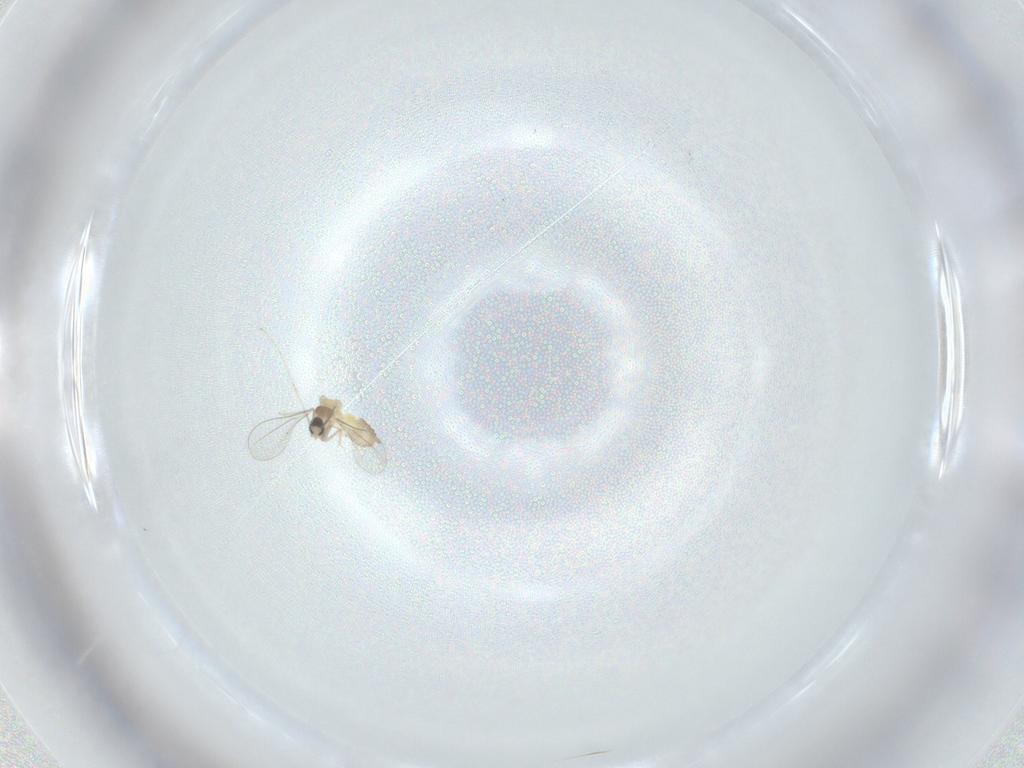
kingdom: Animalia
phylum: Arthropoda
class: Insecta
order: Diptera
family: Cecidomyiidae
